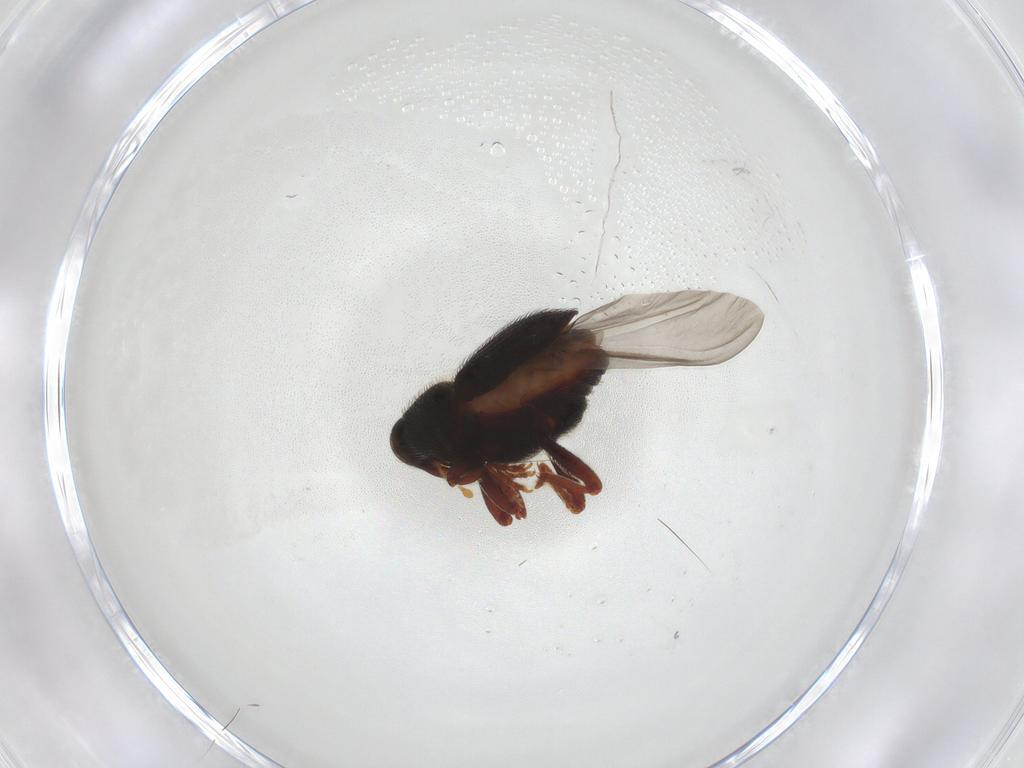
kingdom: Animalia
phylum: Arthropoda
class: Insecta
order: Coleoptera
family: Curculionidae
